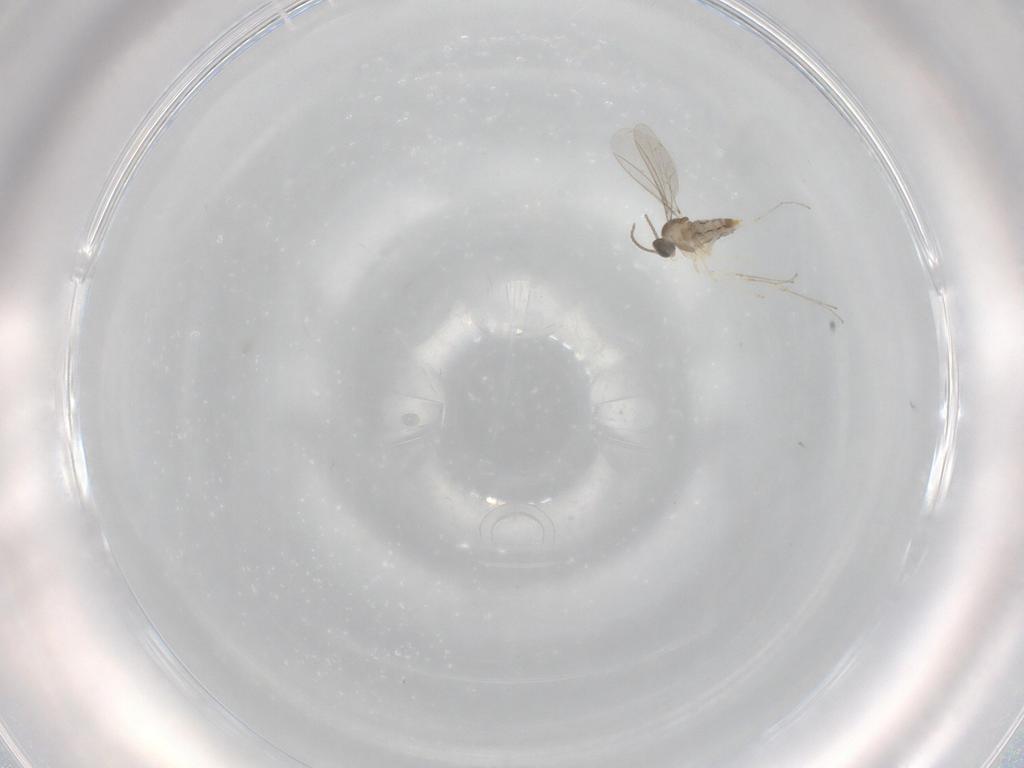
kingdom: Animalia
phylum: Arthropoda
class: Insecta
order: Diptera
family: Cecidomyiidae
